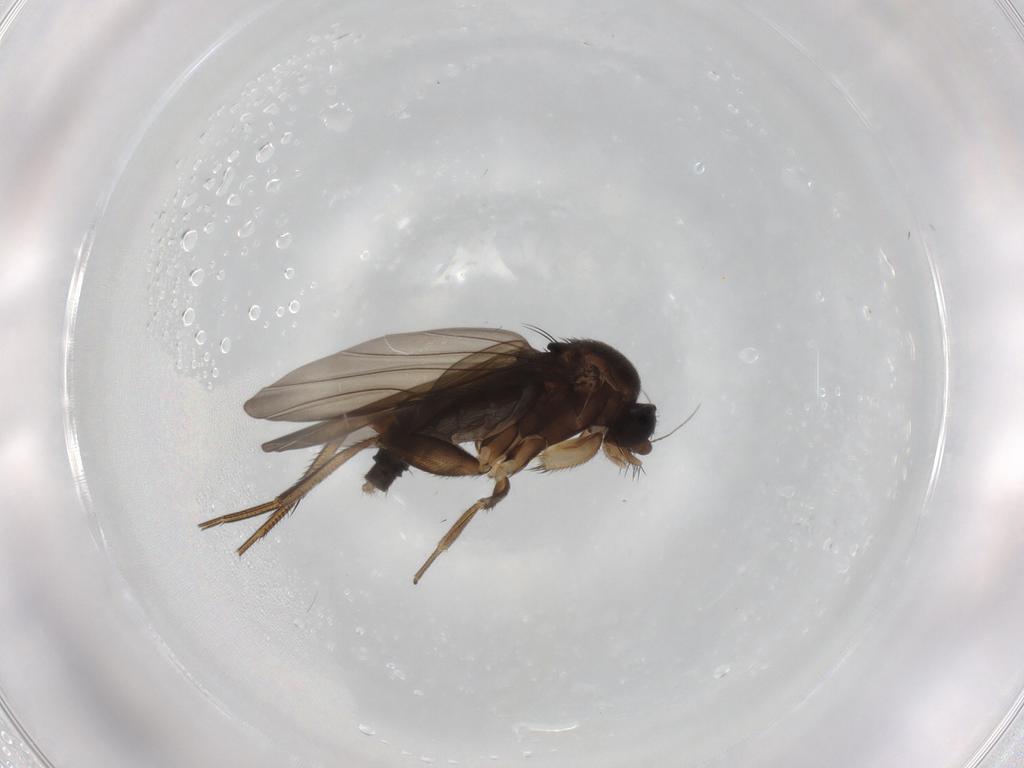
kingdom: Animalia
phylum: Arthropoda
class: Insecta
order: Diptera
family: Phoridae
